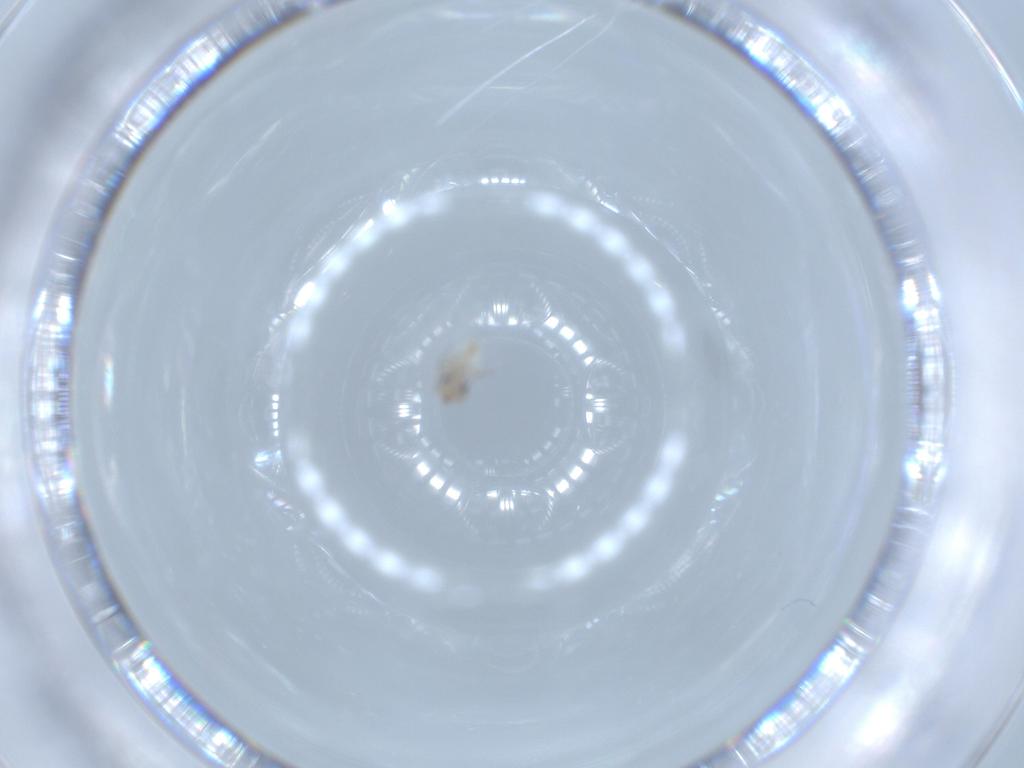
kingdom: Animalia
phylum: Arthropoda
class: Insecta
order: Psocodea
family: Lepidopsocidae
